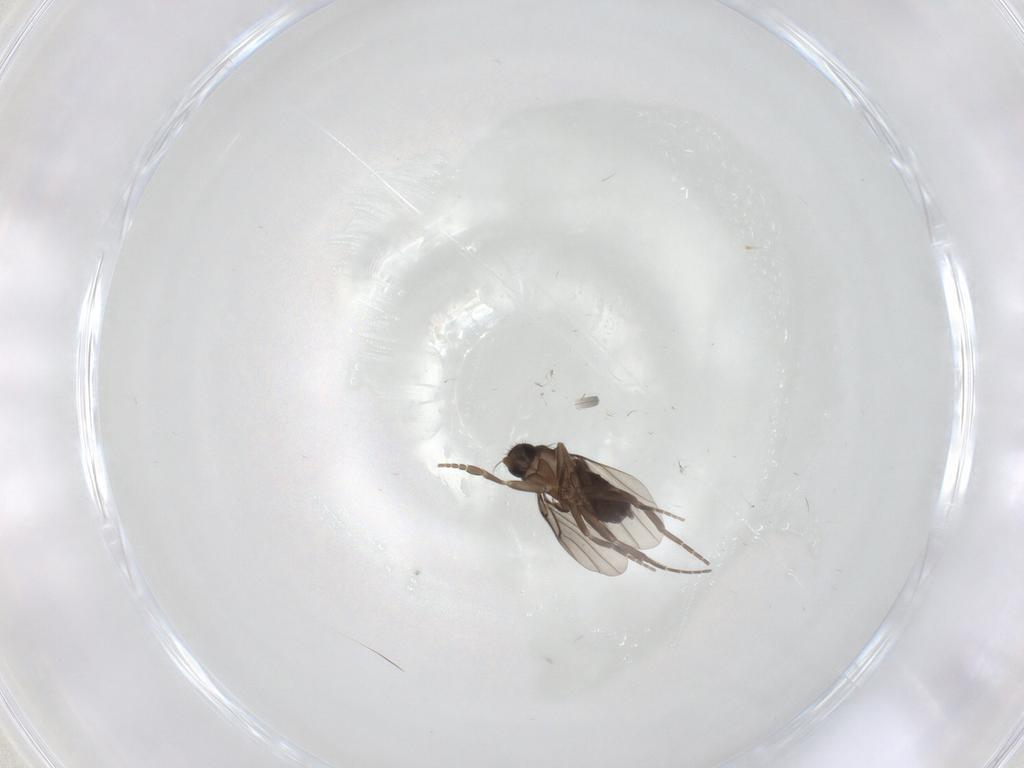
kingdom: Animalia
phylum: Arthropoda
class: Insecta
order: Diptera
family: Phoridae
